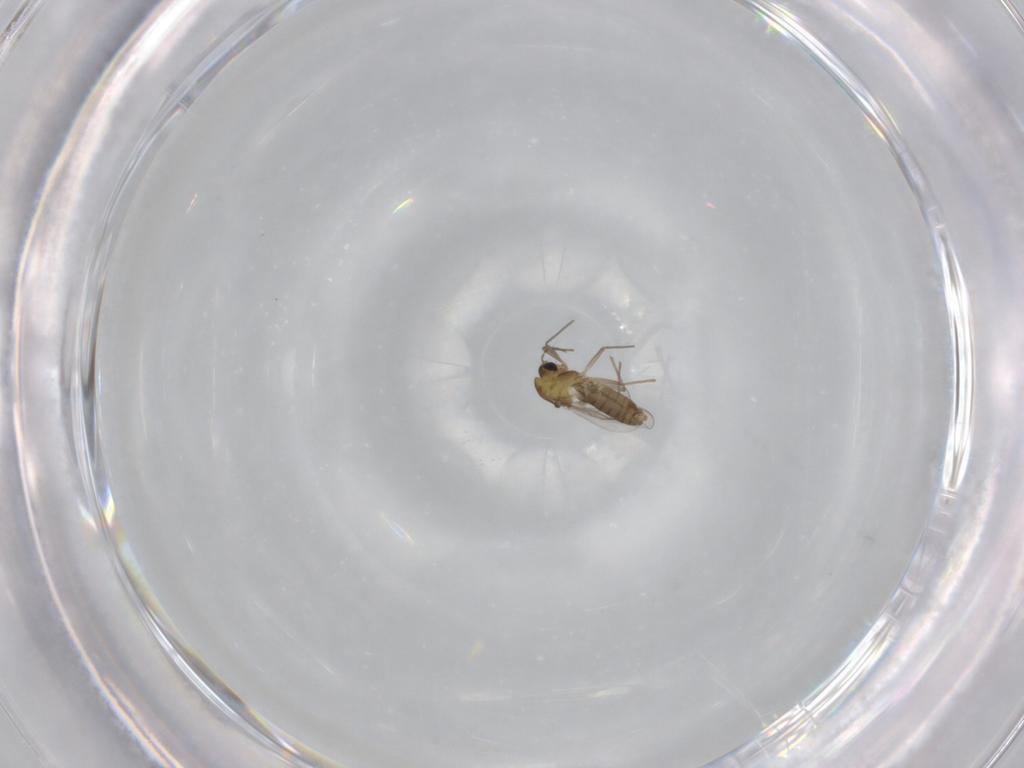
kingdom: Animalia
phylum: Arthropoda
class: Insecta
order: Diptera
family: Chironomidae
